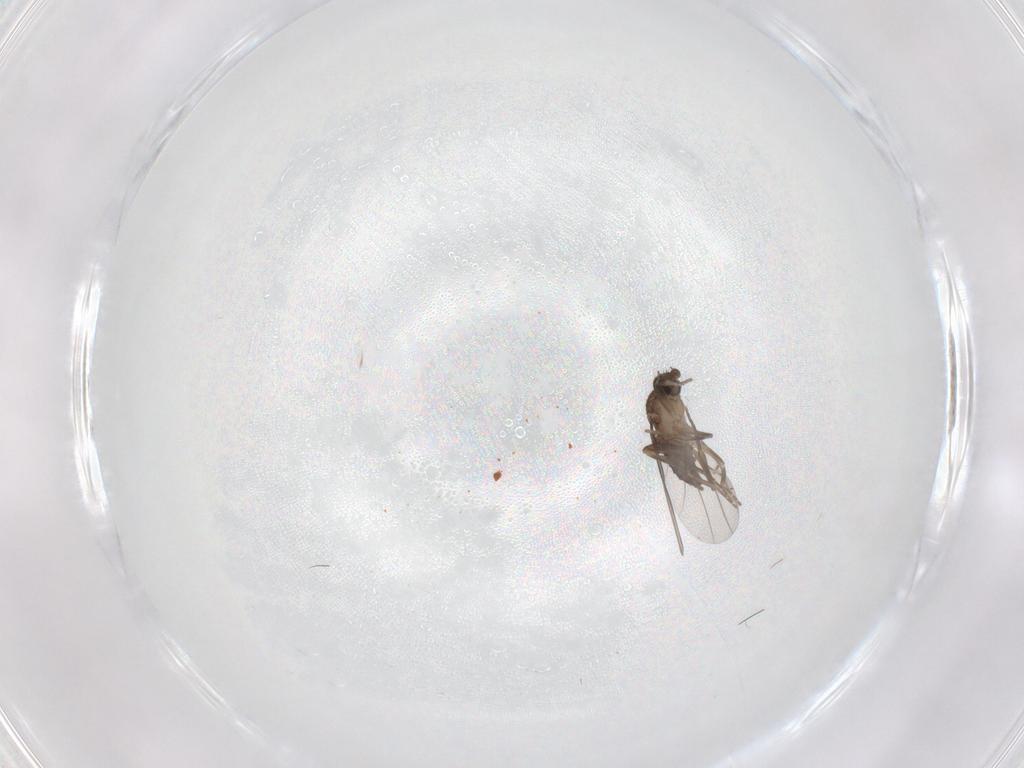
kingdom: Animalia
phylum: Arthropoda
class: Insecta
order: Diptera
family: Phoridae
